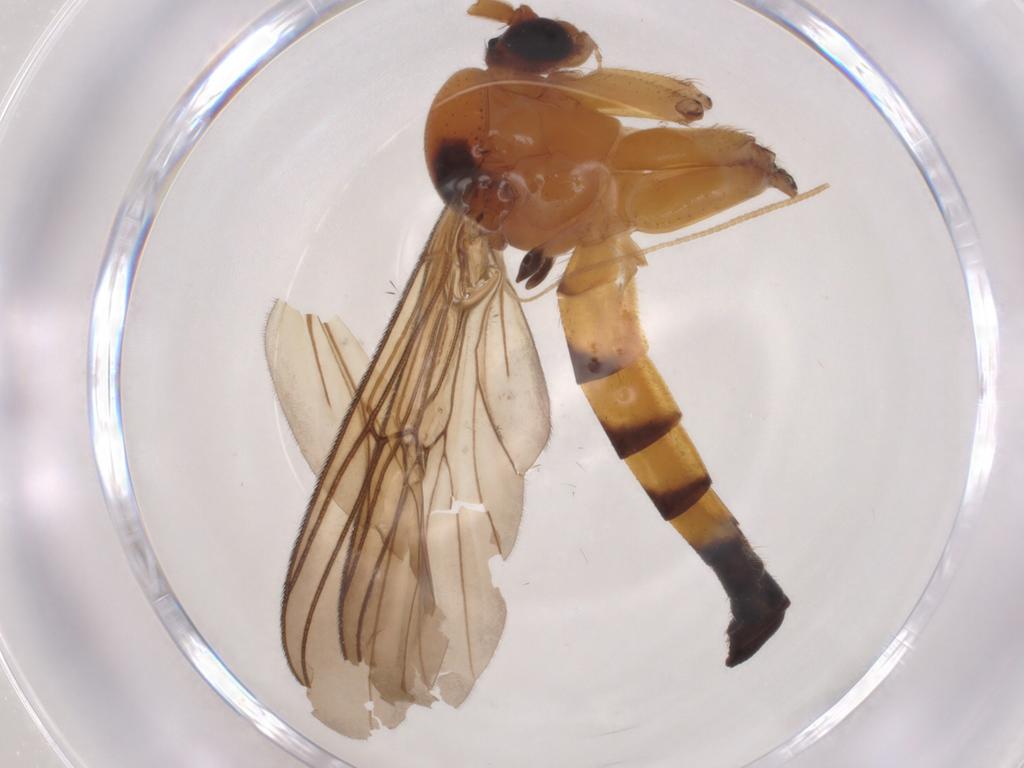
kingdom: Animalia
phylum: Arthropoda
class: Insecta
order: Diptera
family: Mycetophilidae
